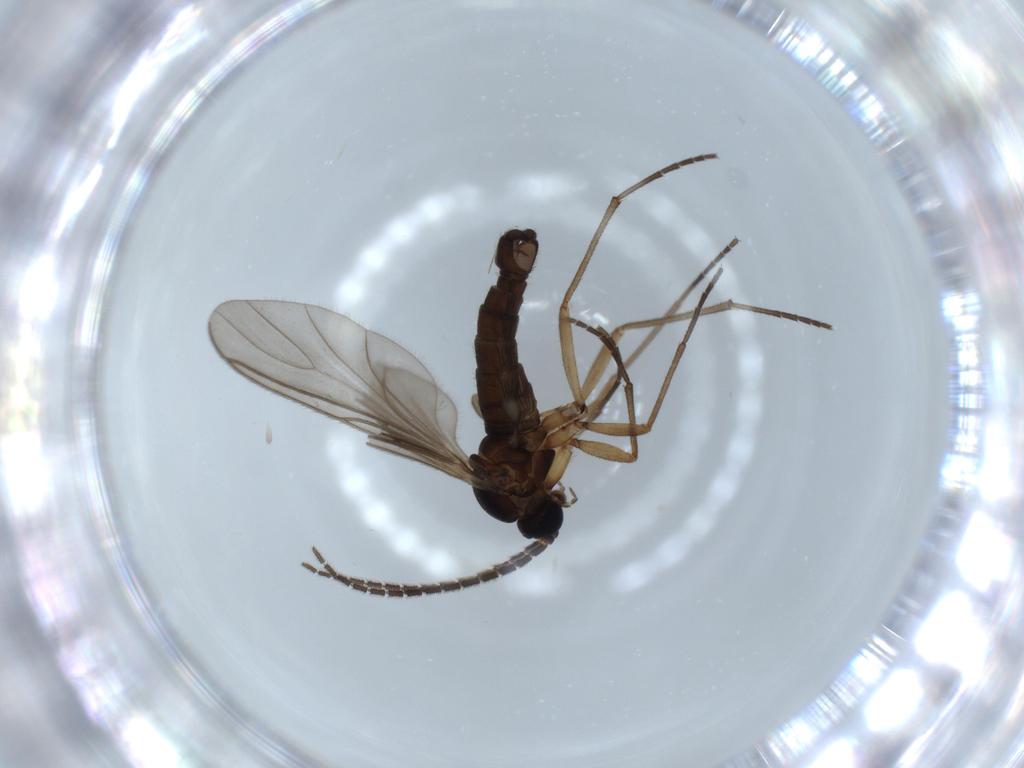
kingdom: Animalia
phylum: Arthropoda
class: Insecta
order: Diptera
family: Sciaridae
